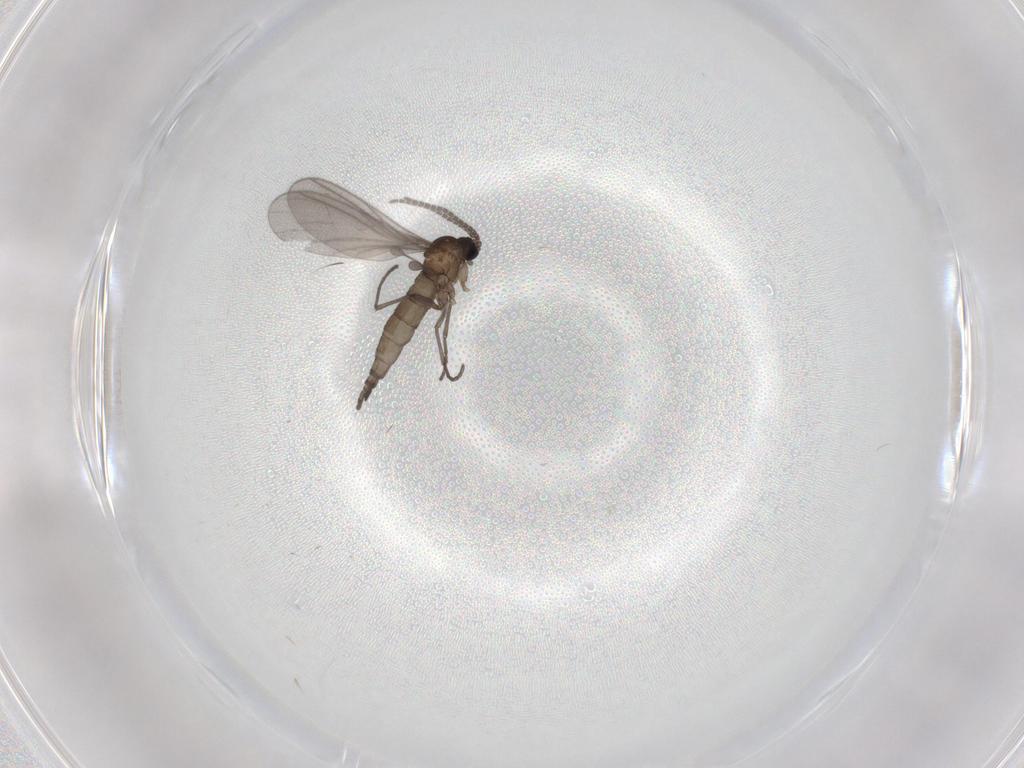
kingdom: Animalia
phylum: Arthropoda
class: Insecta
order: Diptera
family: Sciaridae
